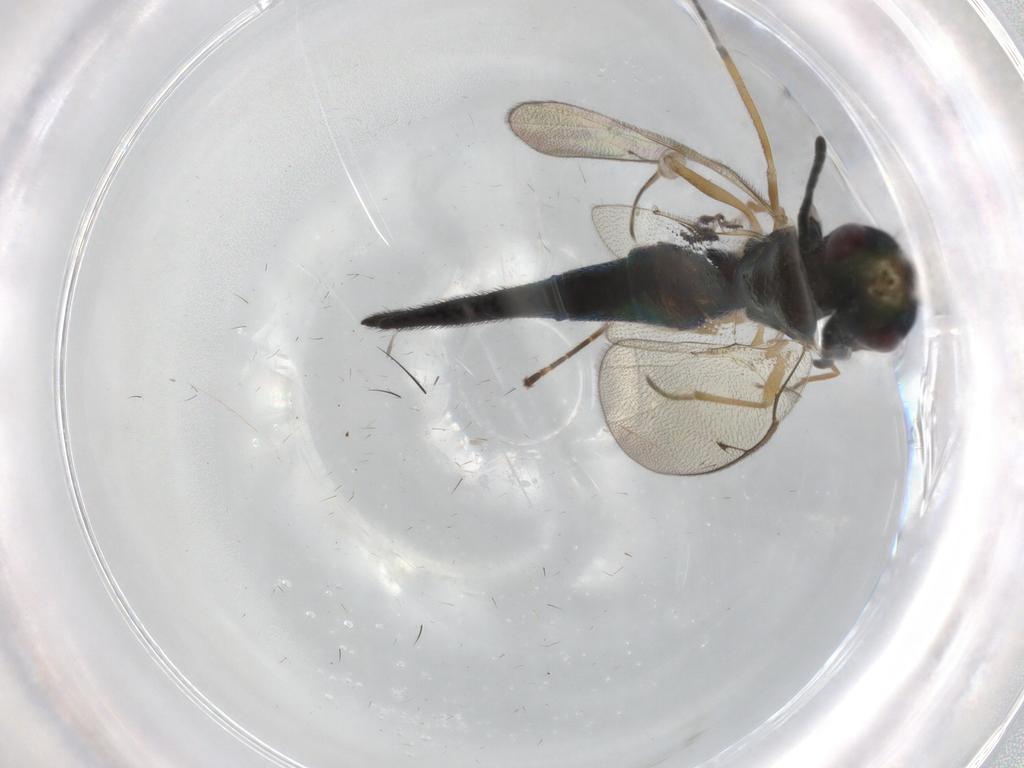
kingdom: Animalia
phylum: Arthropoda
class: Insecta
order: Hymenoptera
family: Pteromalidae
